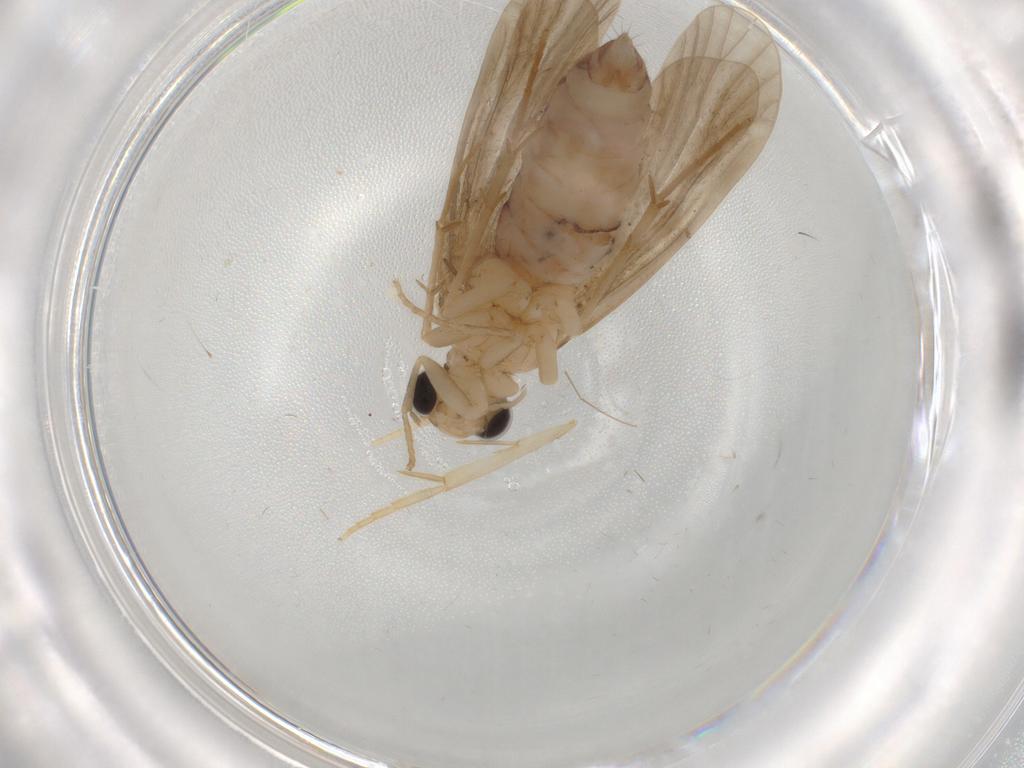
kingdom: Animalia
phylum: Arthropoda
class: Insecta
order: Trichoptera
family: Ecnomidae
